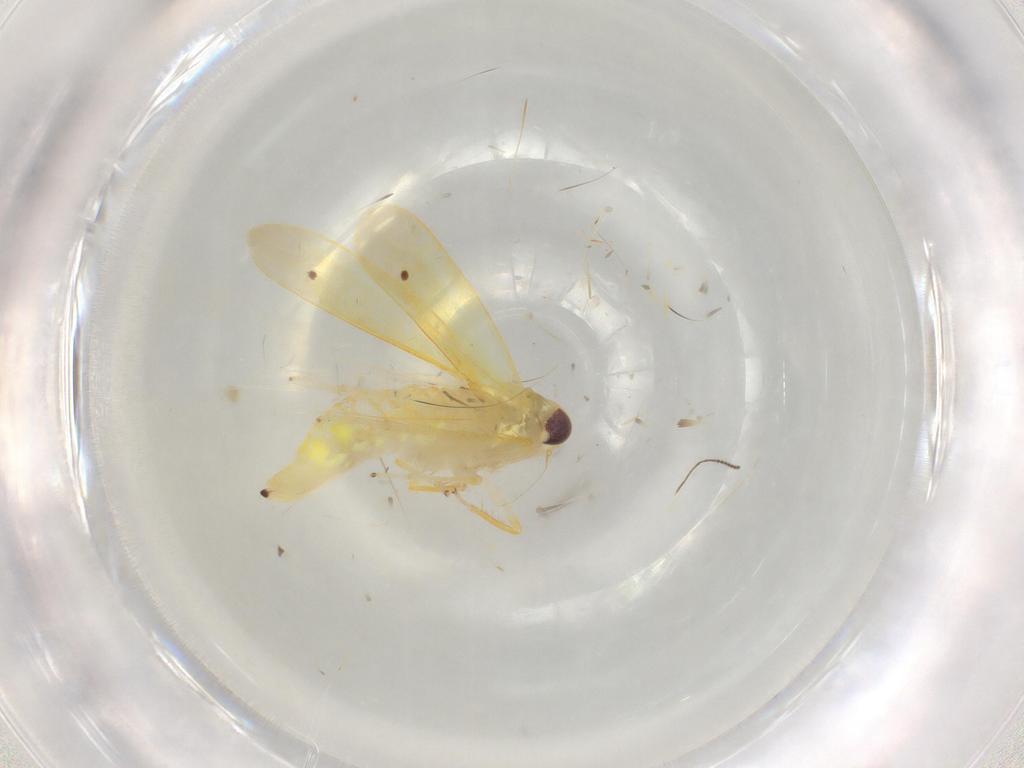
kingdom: Animalia
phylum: Arthropoda
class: Insecta
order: Hemiptera
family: Cicadellidae
